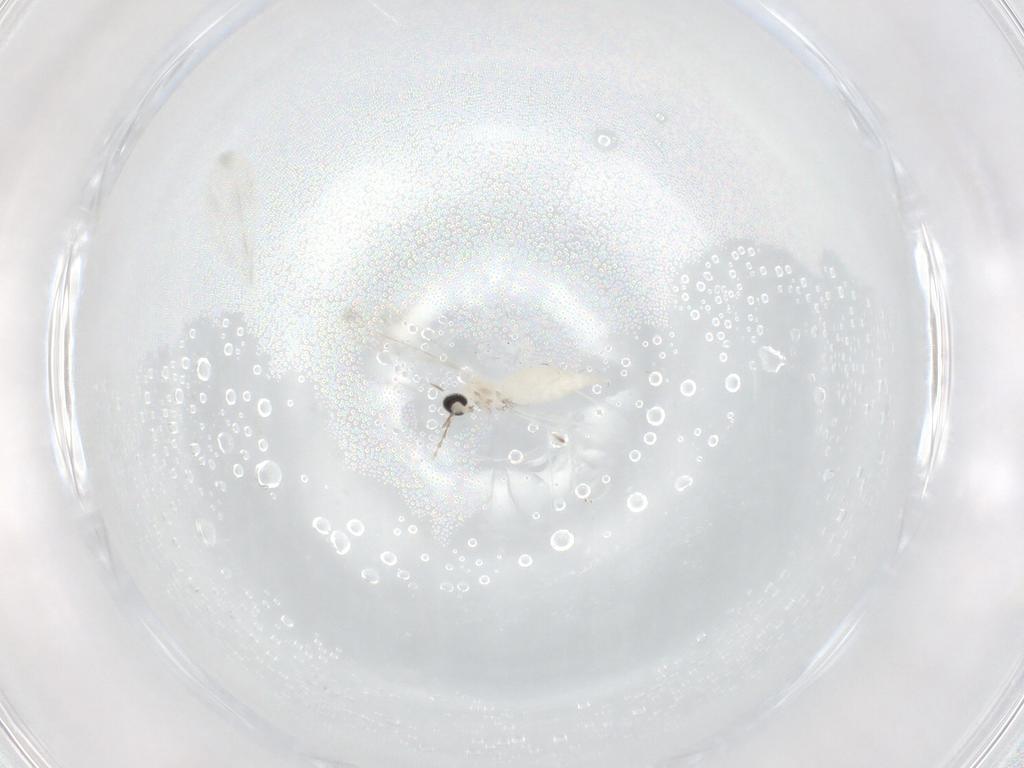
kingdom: Animalia
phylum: Arthropoda
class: Insecta
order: Diptera
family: Cecidomyiidae
